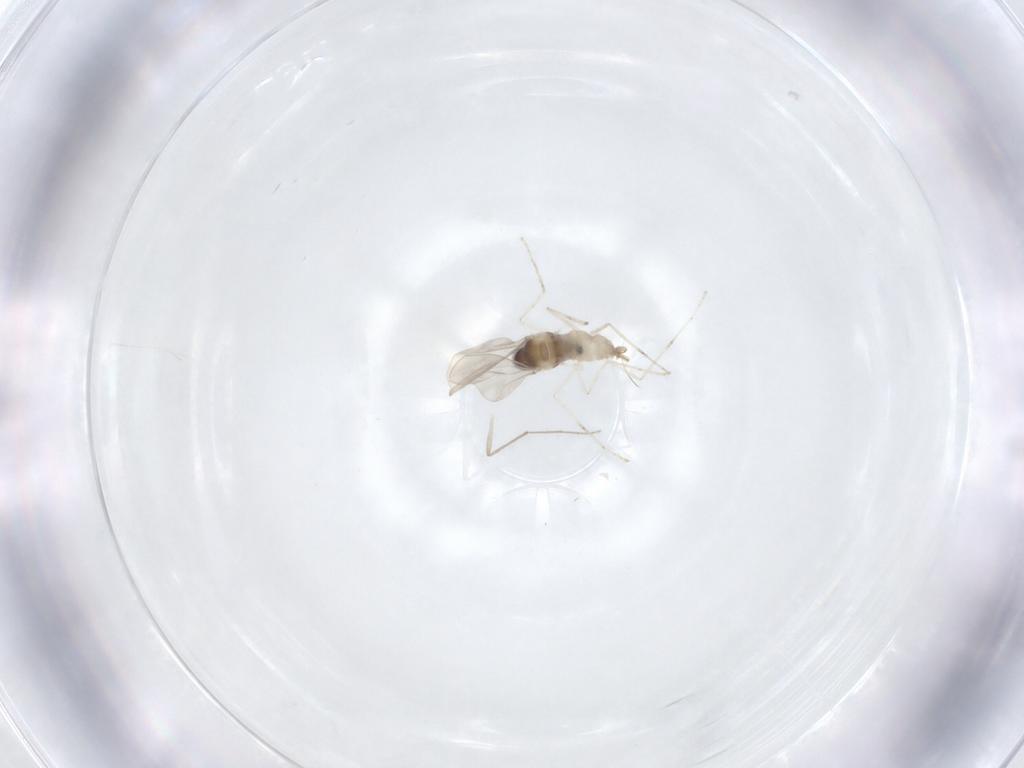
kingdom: Animalia
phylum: Arthropoda
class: Insecta
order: Diptera
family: Cecidomyiidae
